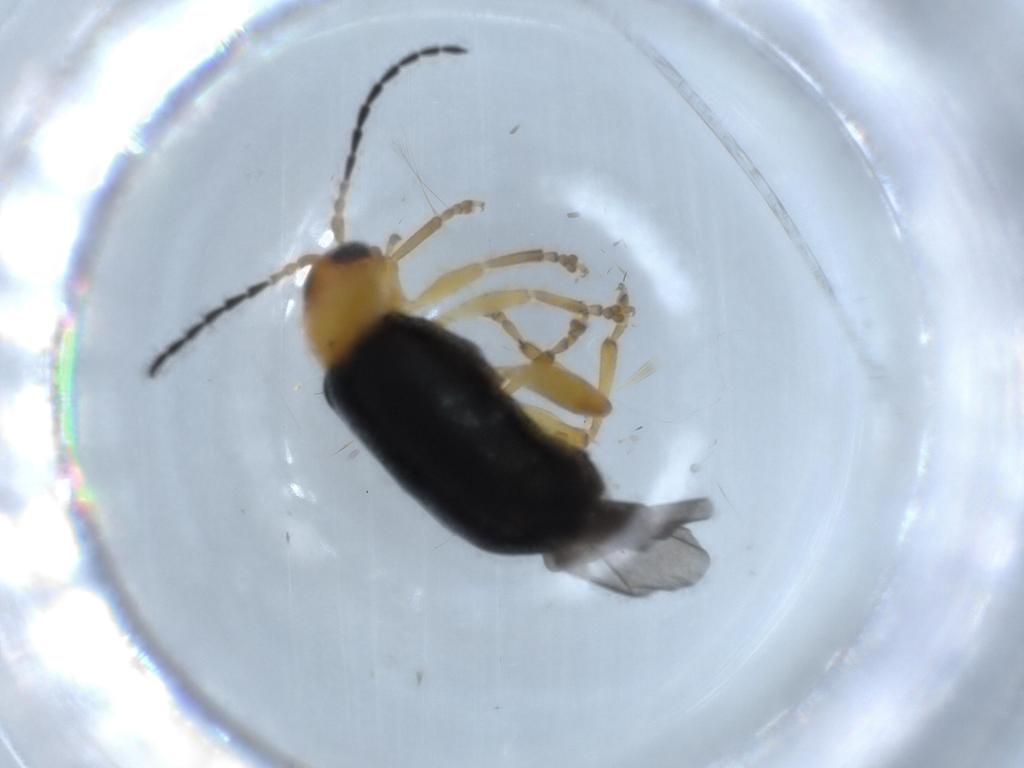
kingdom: Animalia
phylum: Arthropoda
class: Insecta
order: Coleoptera
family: Chrysomelidae
